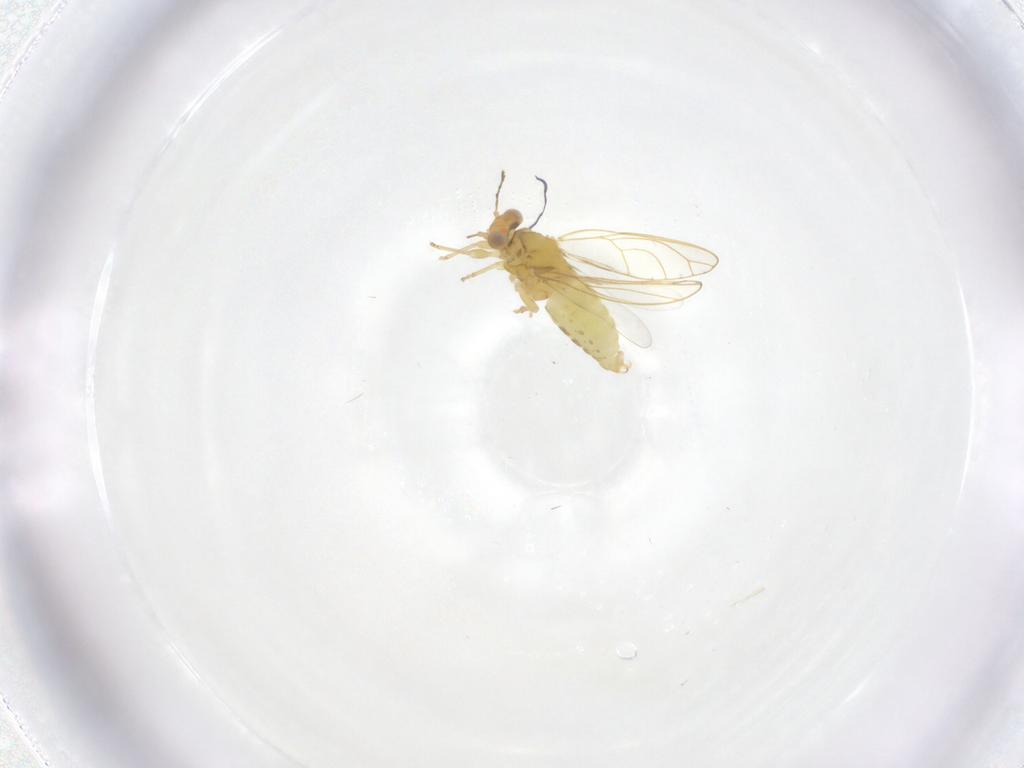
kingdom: Animalia
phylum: Arthropoda
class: Insecta
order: Hemiptera
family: Psylloidea_incertae_sedis
